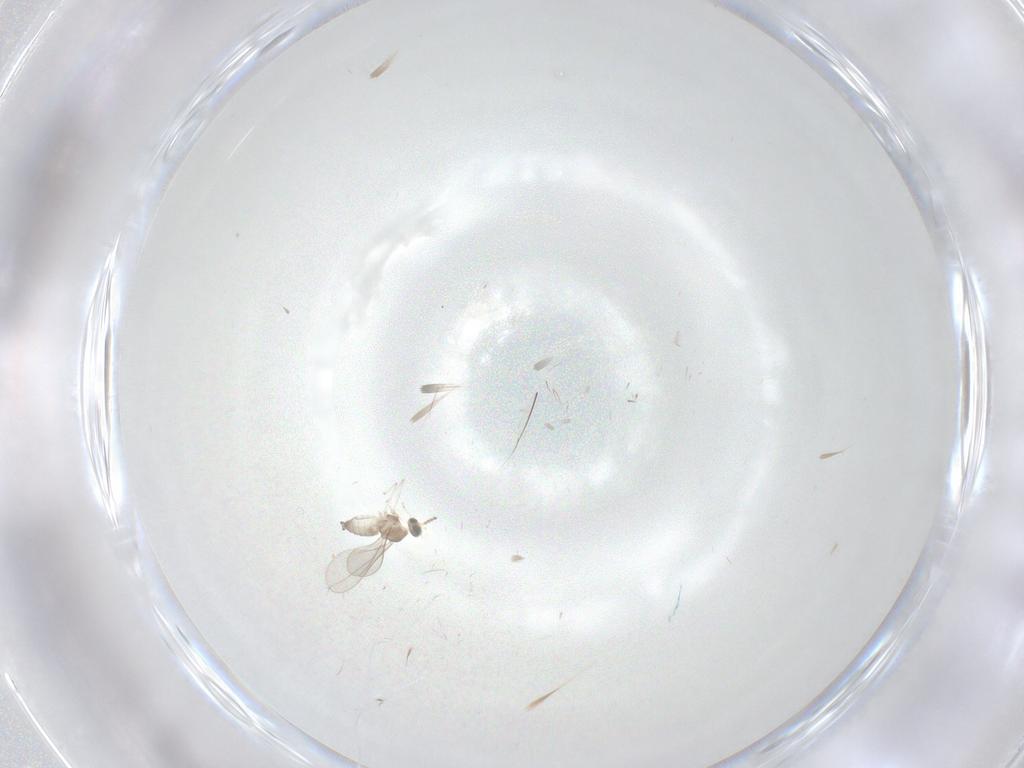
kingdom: Animalia
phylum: Arthropoda
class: Insecta
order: Diptera
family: Cecidomyiidae
